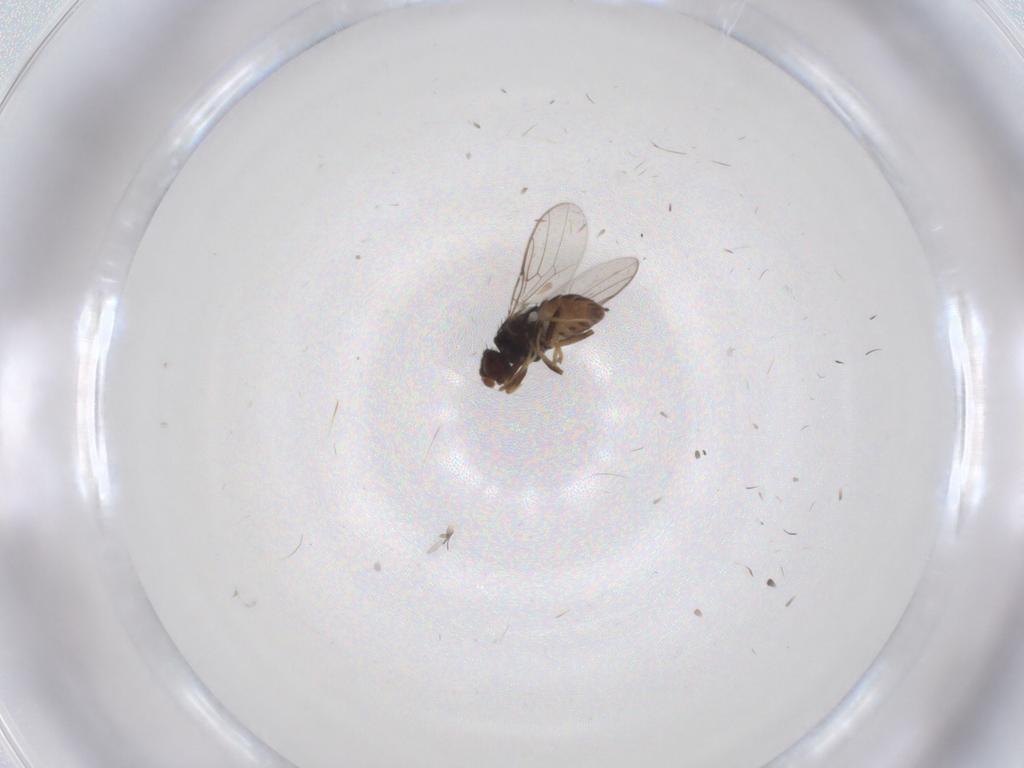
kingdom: Animalia
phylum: Arthropoda
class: Insecta
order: Diptera
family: Chloropidae
